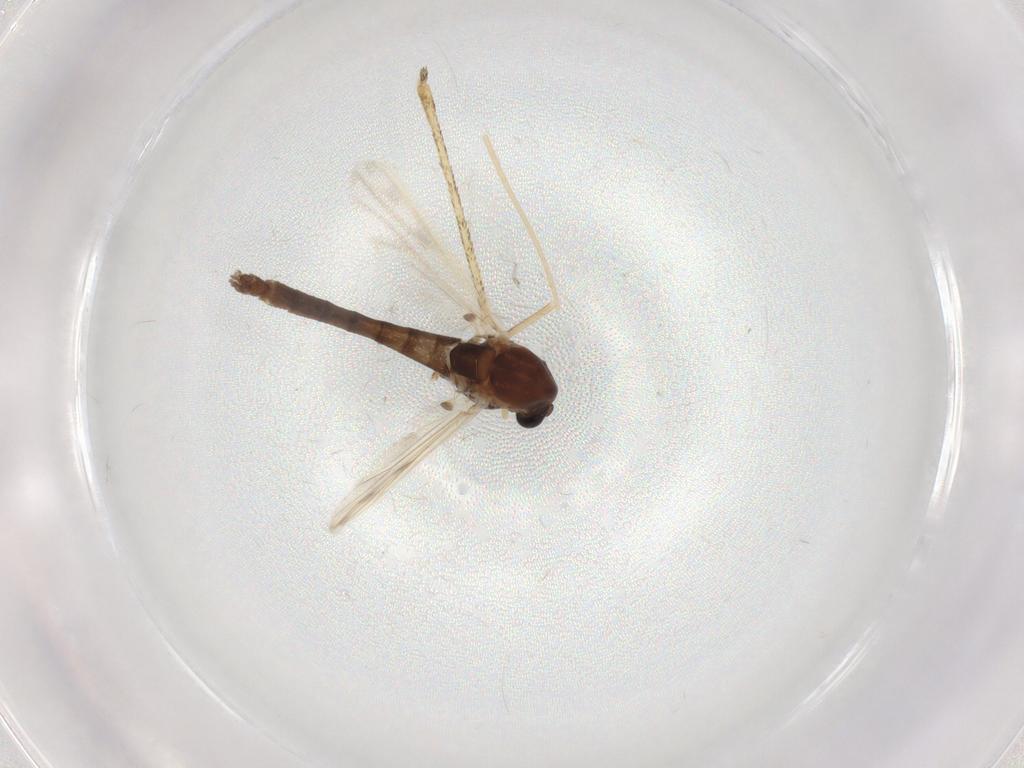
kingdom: Animalia
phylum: Arthropoda
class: Insecta
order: Diptera
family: Chironomidae
